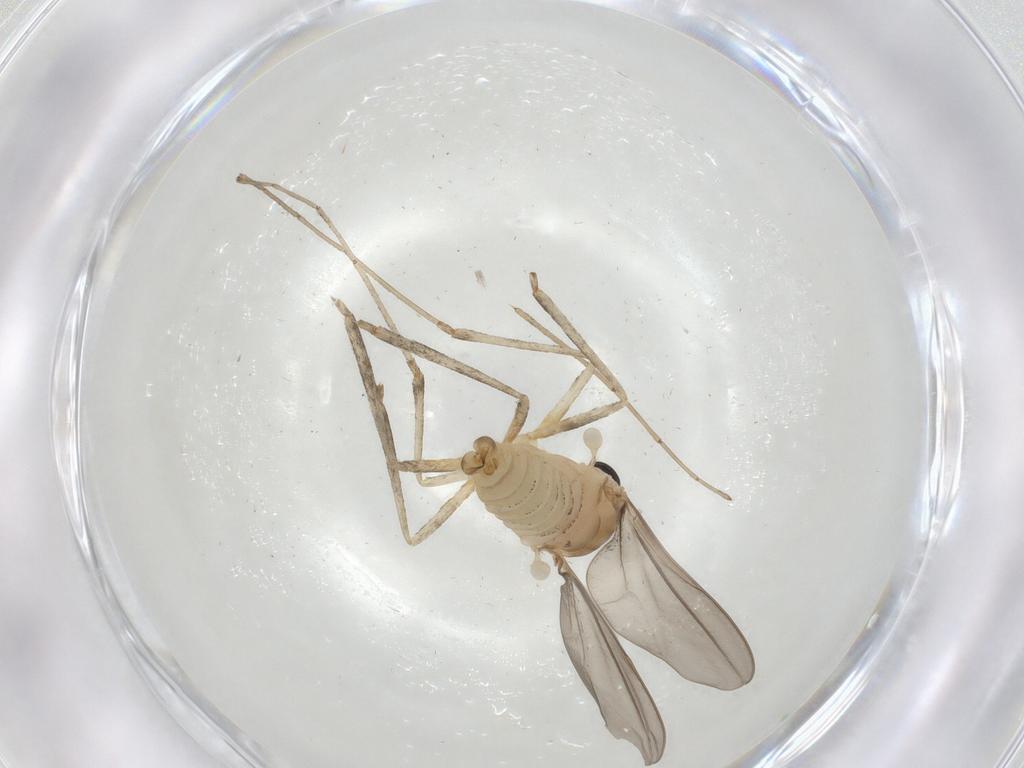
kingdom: Animalia
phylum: Arthropoda
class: Insecta
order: Diptera
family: Cecidomyiidae
